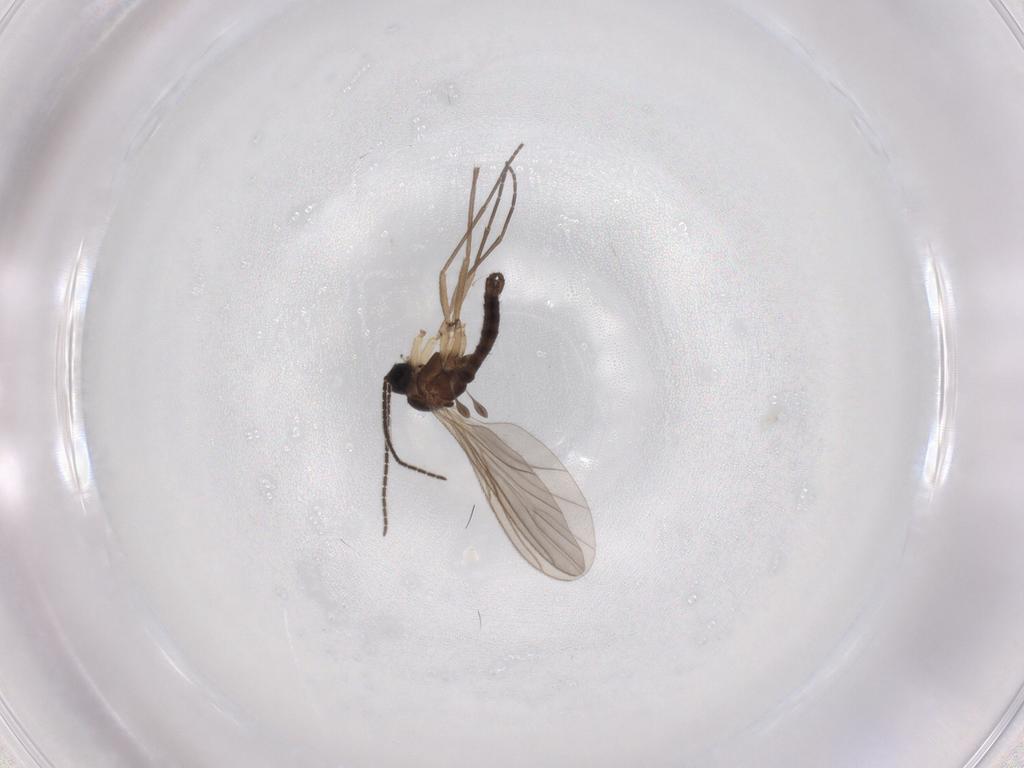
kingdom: Animalia
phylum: Arthropoda
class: Insecta
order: Diptera
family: Sciaridae
